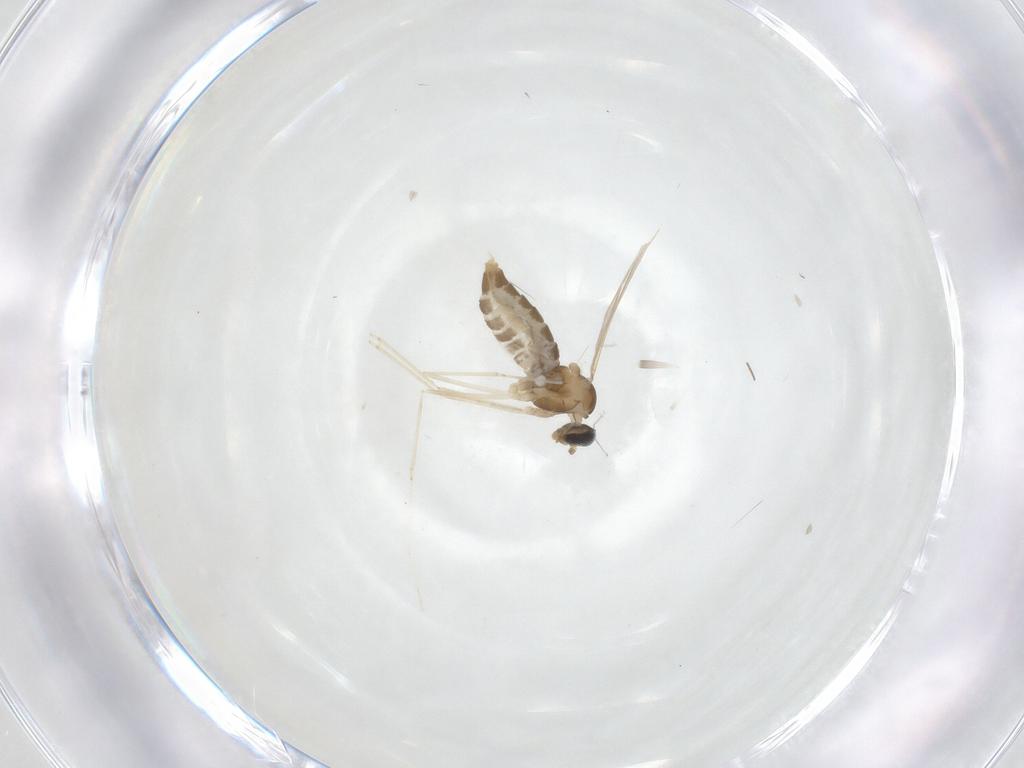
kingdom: Animalia
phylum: Arthropoda
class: Insecta
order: Diptera
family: Cecidomyiidae
